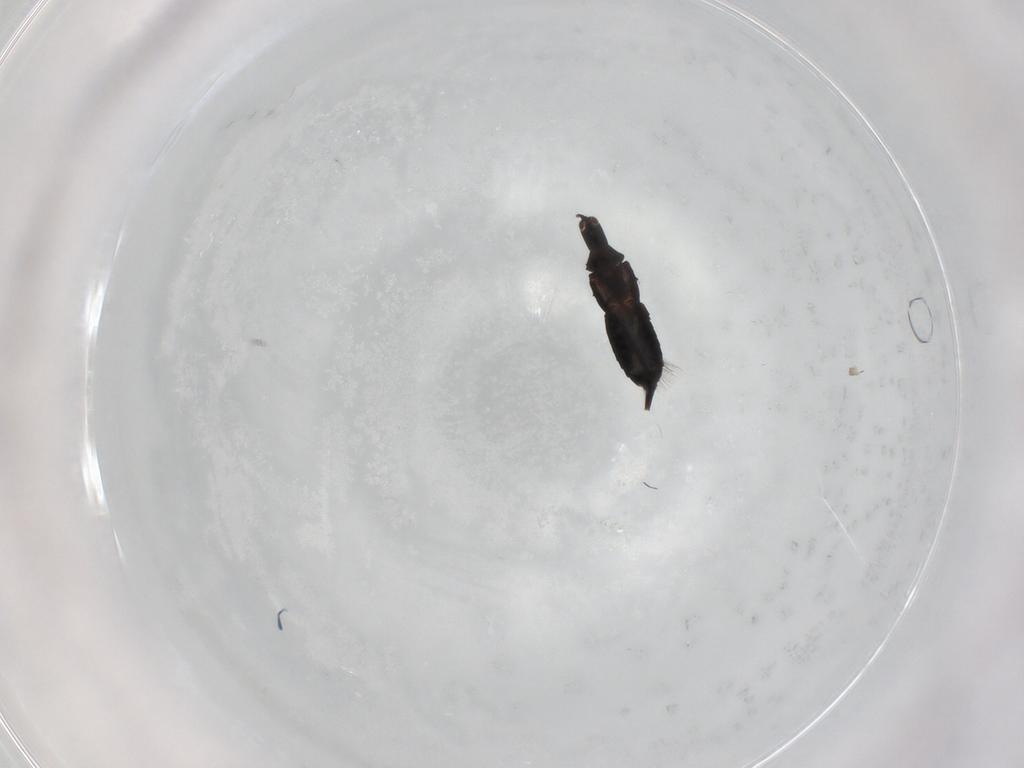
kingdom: Animalia
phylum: Arthropoda
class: Insecta
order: Thysanoptera
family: Phlaeothripidae
